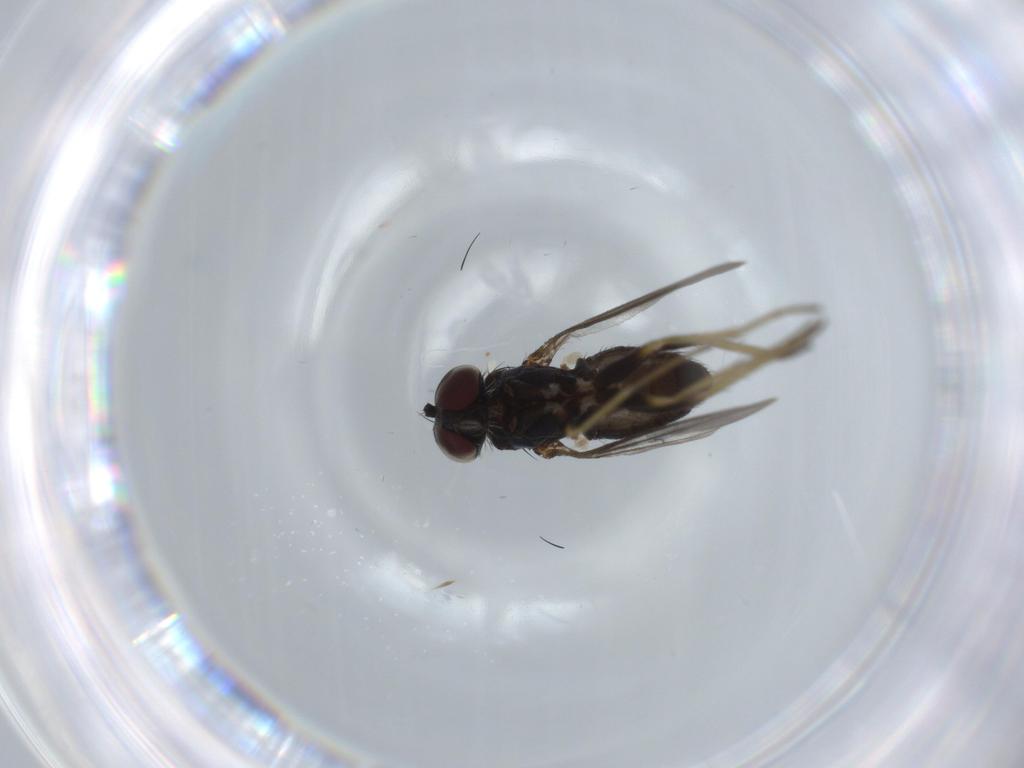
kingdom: Animalia
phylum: Arthropoda
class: Insecta
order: Diptera
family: Dolichopodidae
